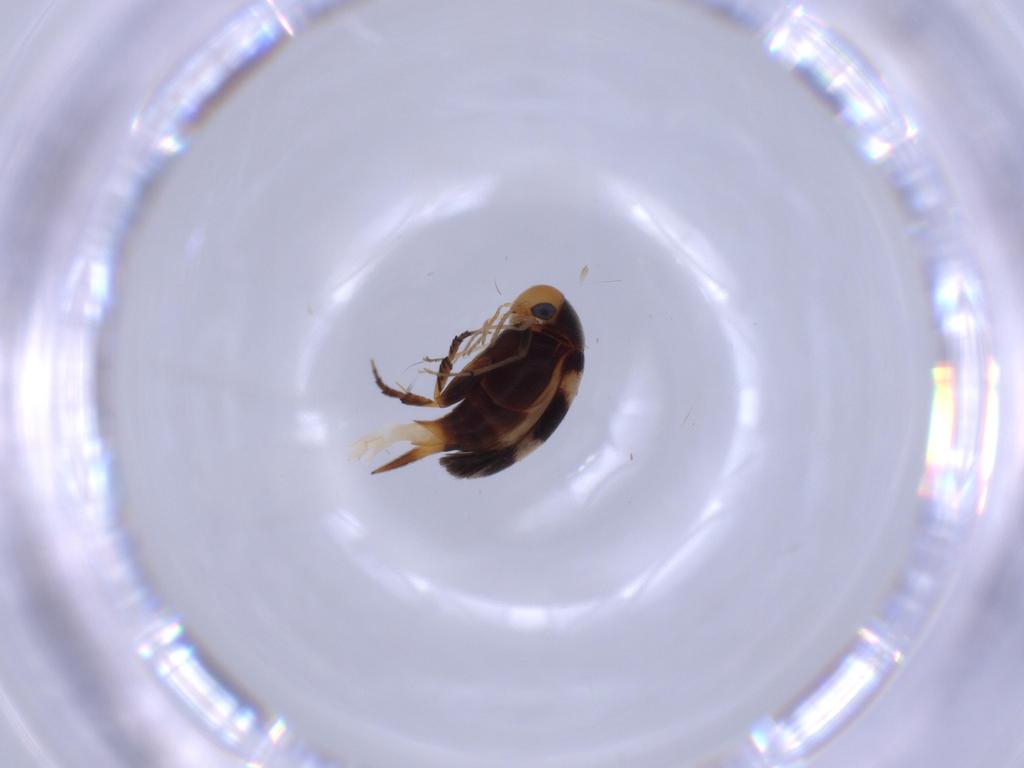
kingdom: Animalia
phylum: Arthropoda
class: Insecta
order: Coleoptera
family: Mordellidae
